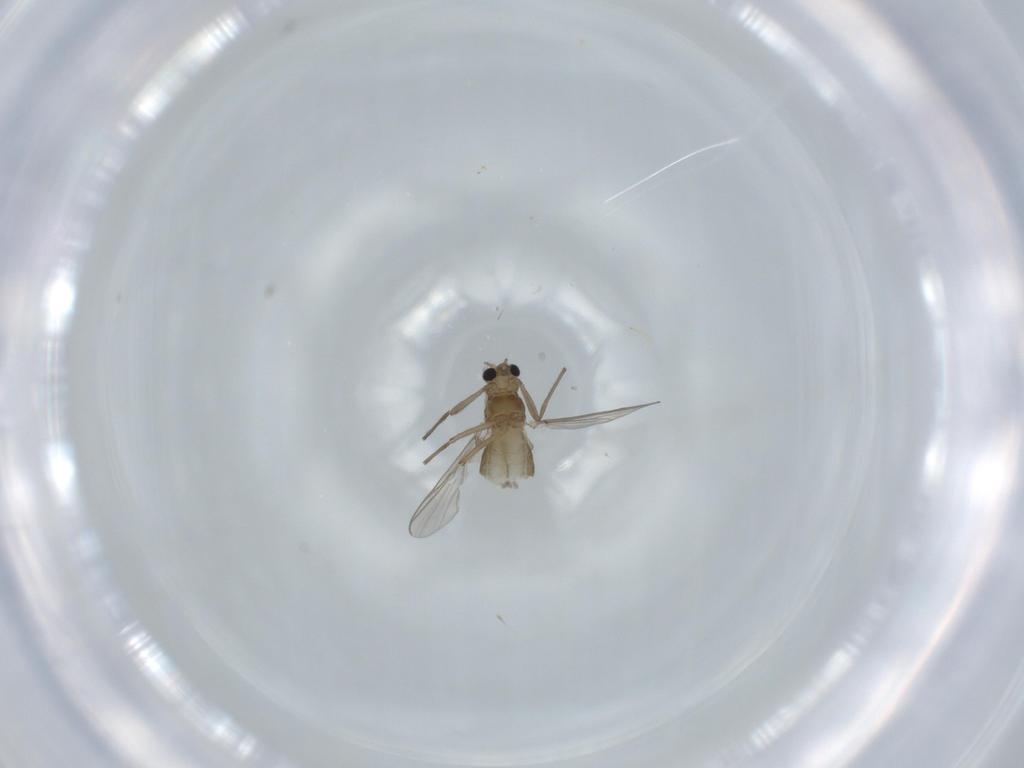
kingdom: Animalia
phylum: Arthropoda
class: Insecta
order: Diptera
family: Chironomidae
